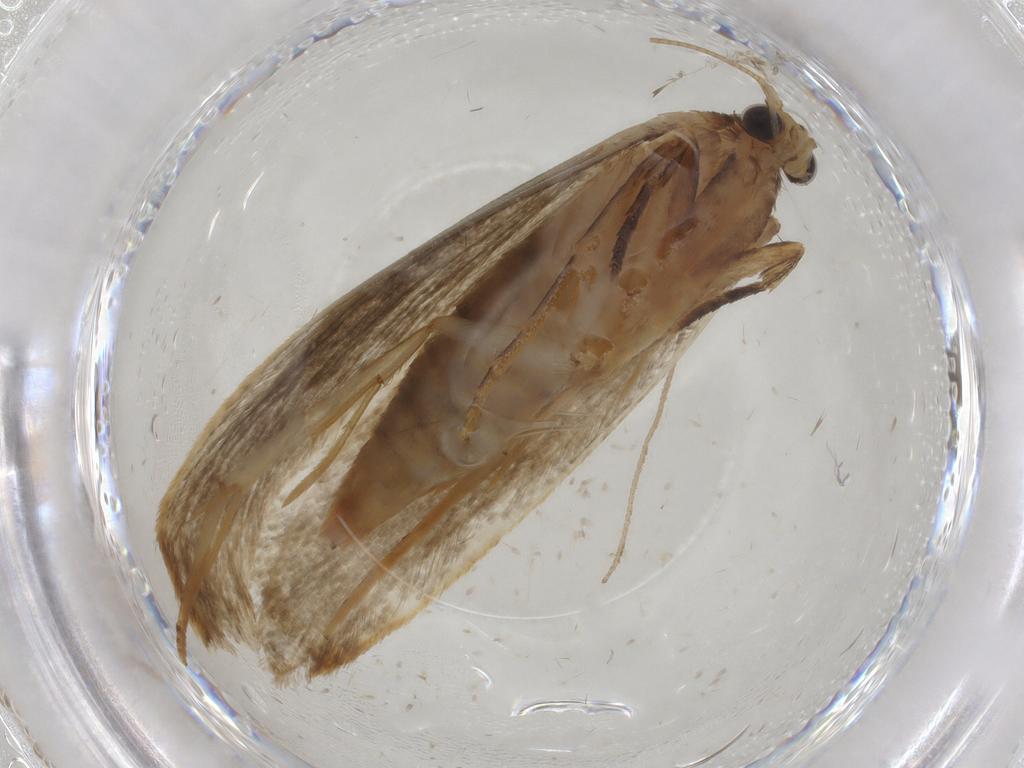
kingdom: Animalia
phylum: Arthropoda
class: Insecta
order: Lepidoptera
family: Tineidae
